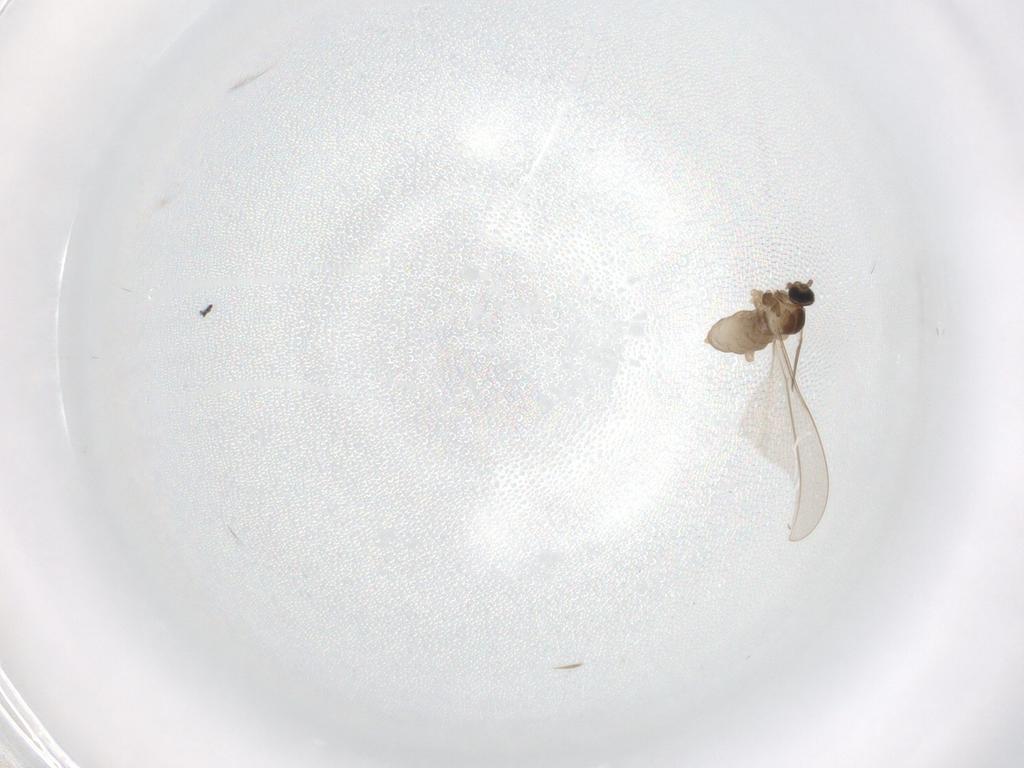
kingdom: Animalia
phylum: Arthropoda
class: Insecta
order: Diptera
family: Cecidomyiidae
